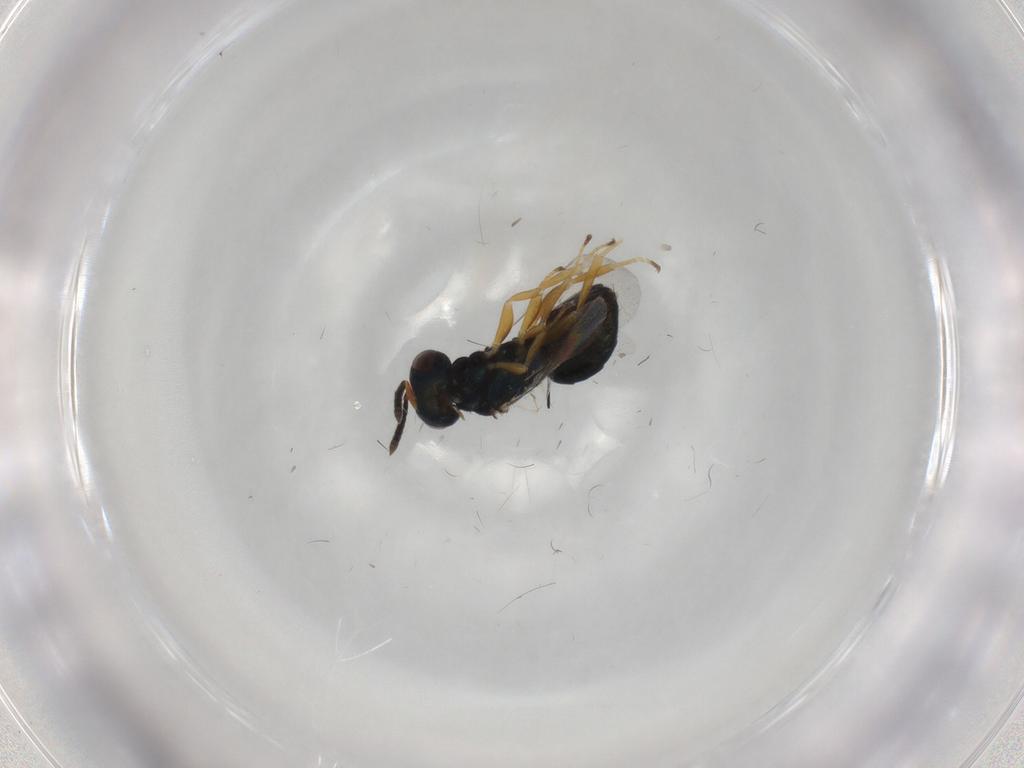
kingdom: Animalia
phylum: Arthropoda
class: Insecta
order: Hymenoptera
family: Pteromalidae
